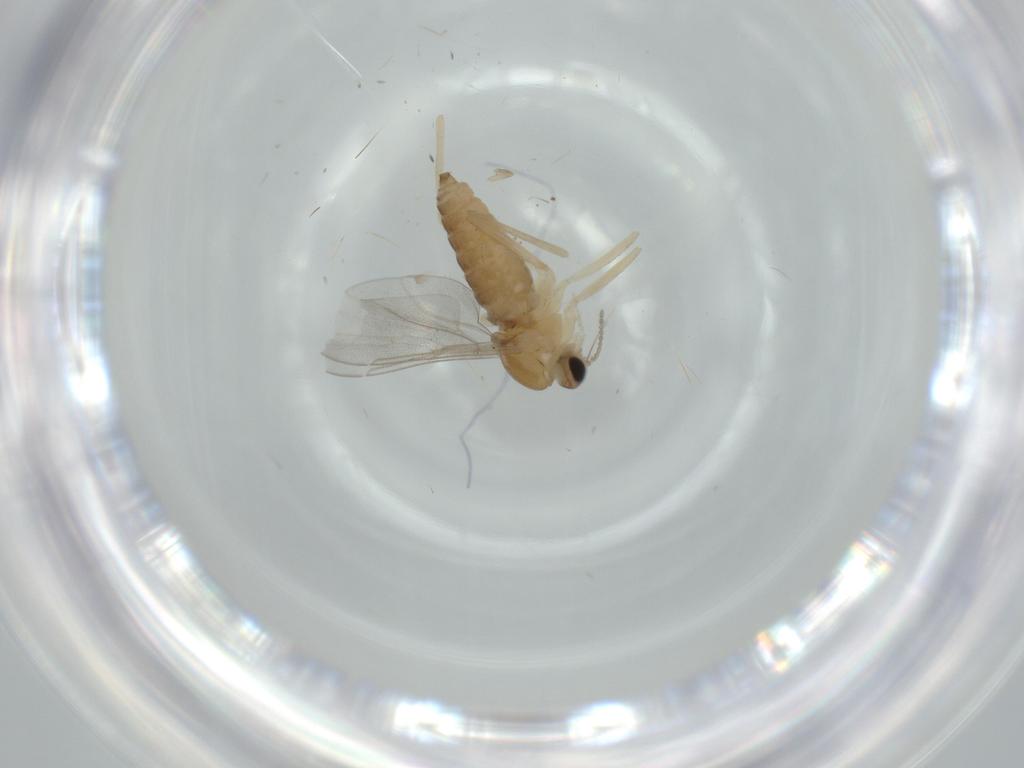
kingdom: Animalia
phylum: Arthropoda
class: Insecta
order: Diptera
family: Cecidomyiidae
